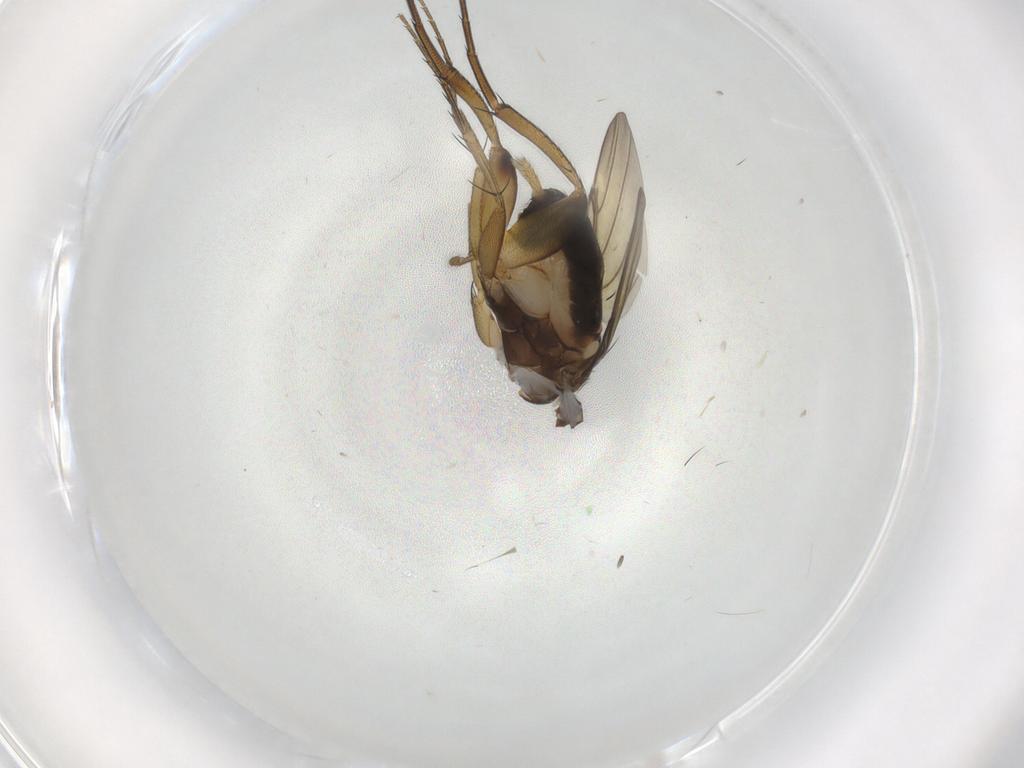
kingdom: Animalia
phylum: Arthropoda
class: Insecta
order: Diptera
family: Phoridae
